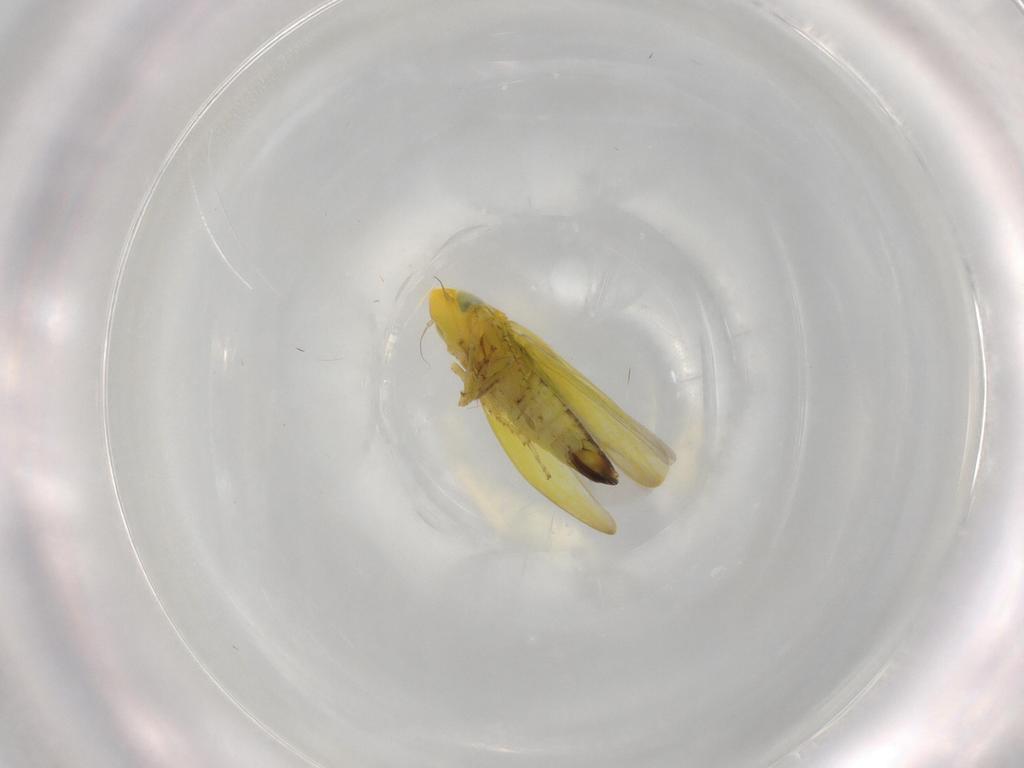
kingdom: Animalia
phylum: Arthropoda
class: Insecta
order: Hemiptera
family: Cicadellidae
